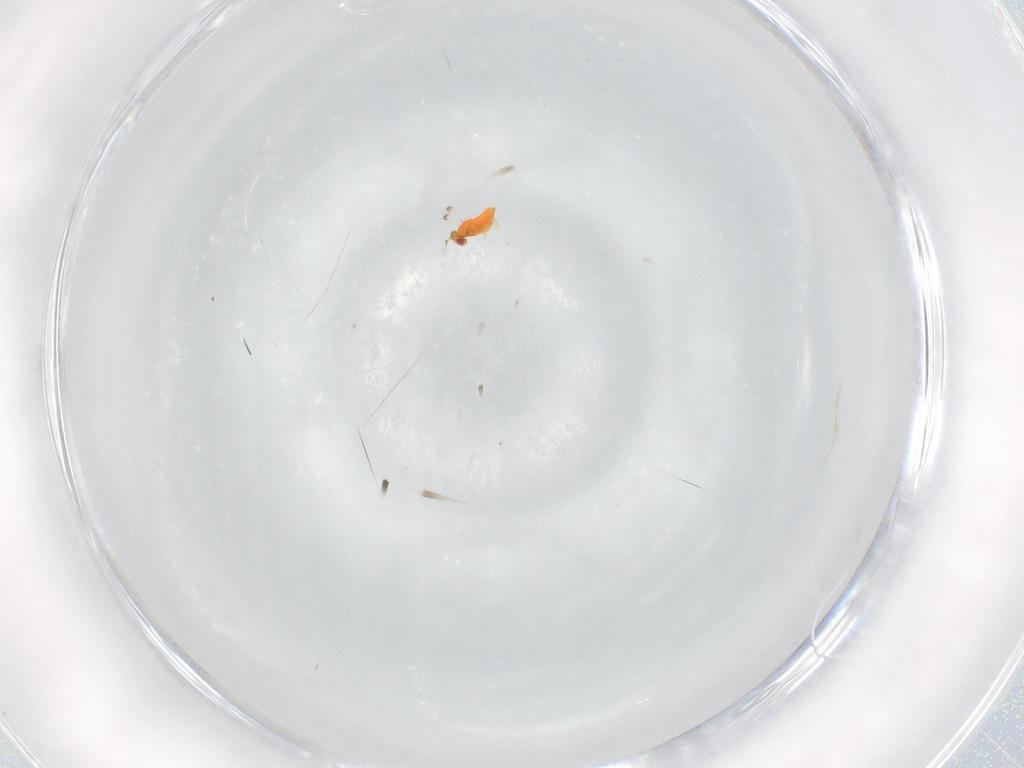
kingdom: Animalia
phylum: Arthropoda
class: Insecta
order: Hymenoptera
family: Trichogrammatidae
